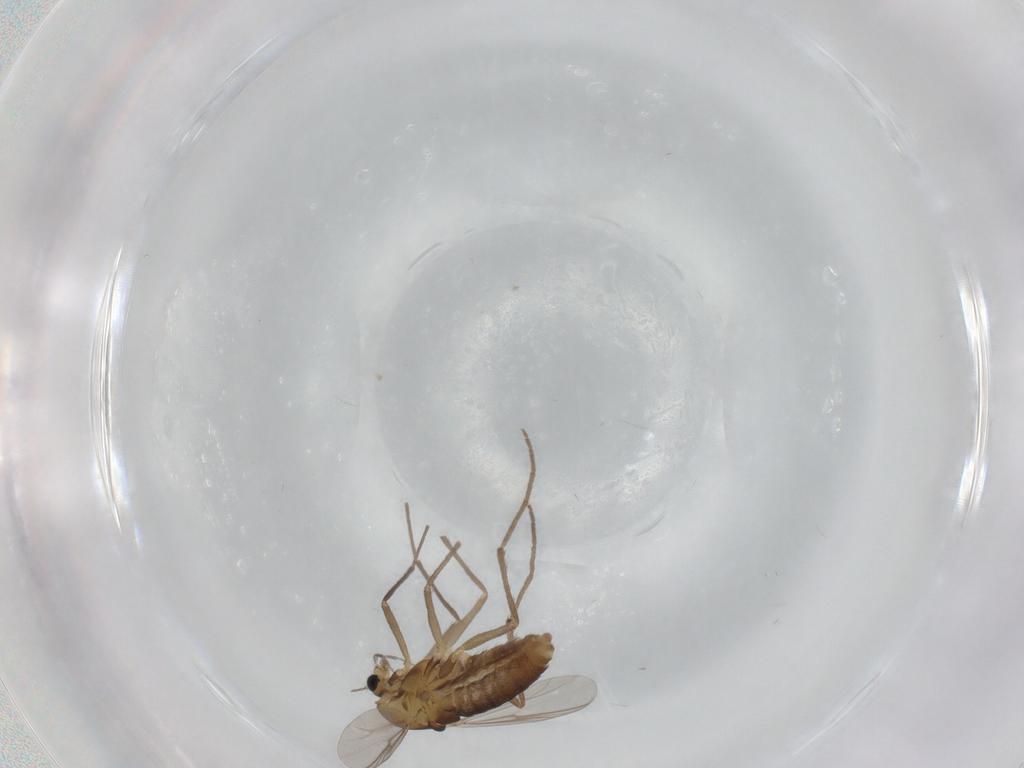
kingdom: Animalia
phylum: Arthropoda
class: Insecta
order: Diptera
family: Chironomidae
